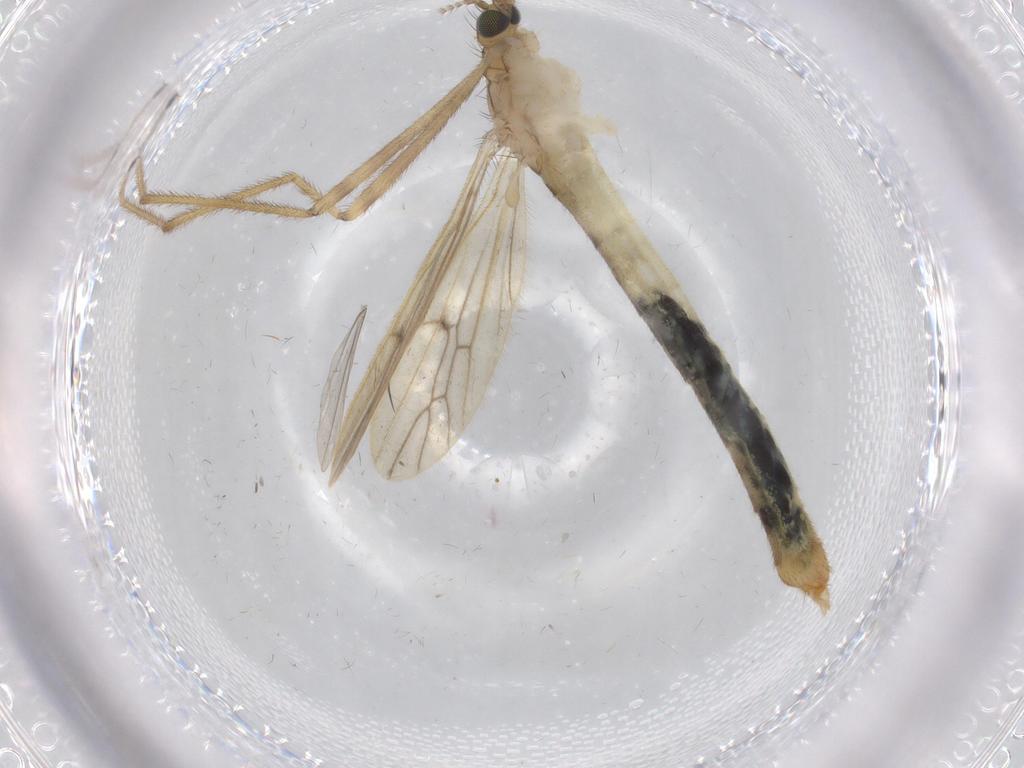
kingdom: Animalia
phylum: Arthropoda
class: Insecta
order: Diptera
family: Limoniidae
